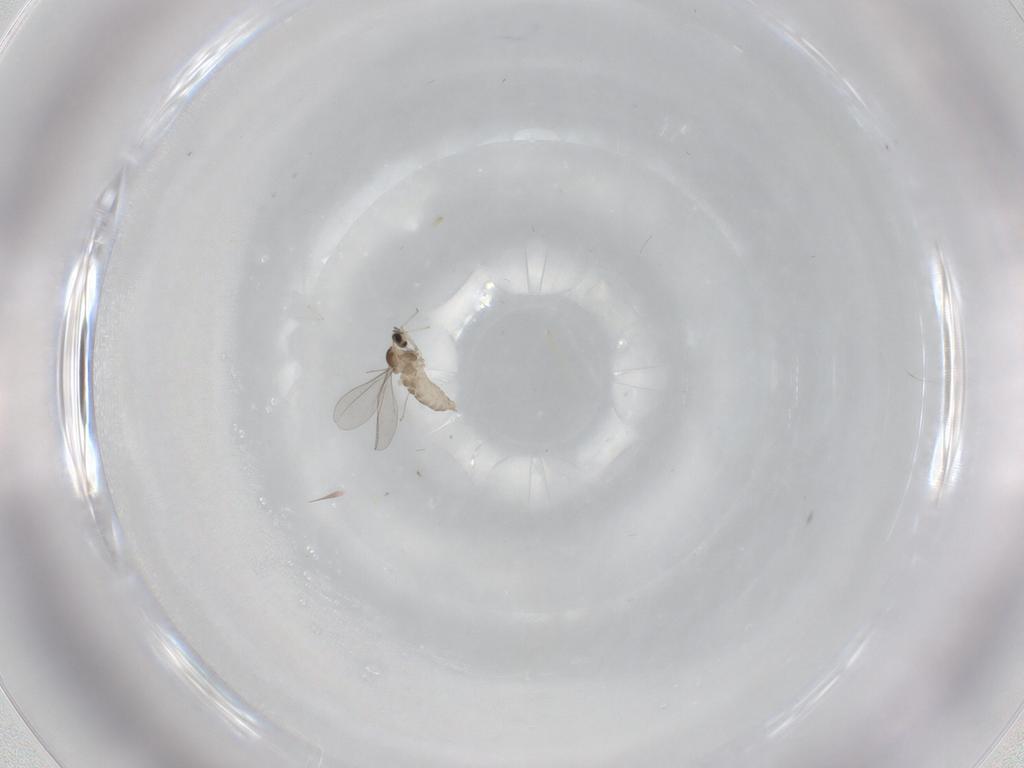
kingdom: Animalia
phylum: Arthropoda
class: Insecta
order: Diptera
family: Cecidomyiidae
